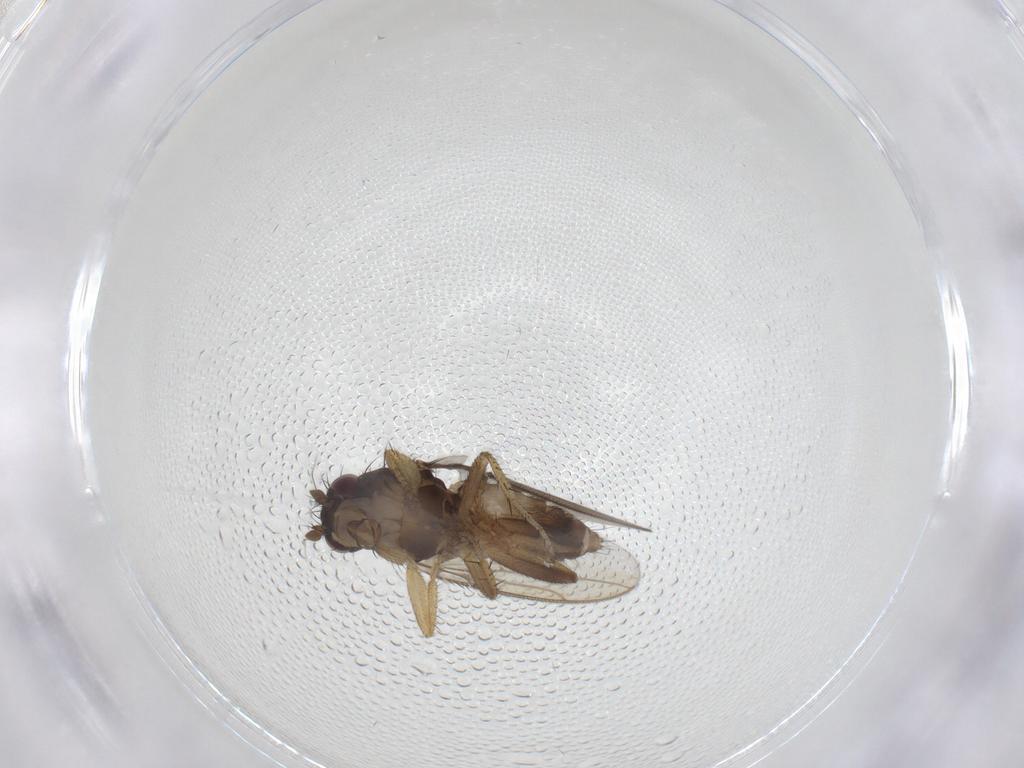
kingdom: Animalia
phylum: Arthropoda
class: Insecta
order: Diptera
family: Sphaeroceridae
